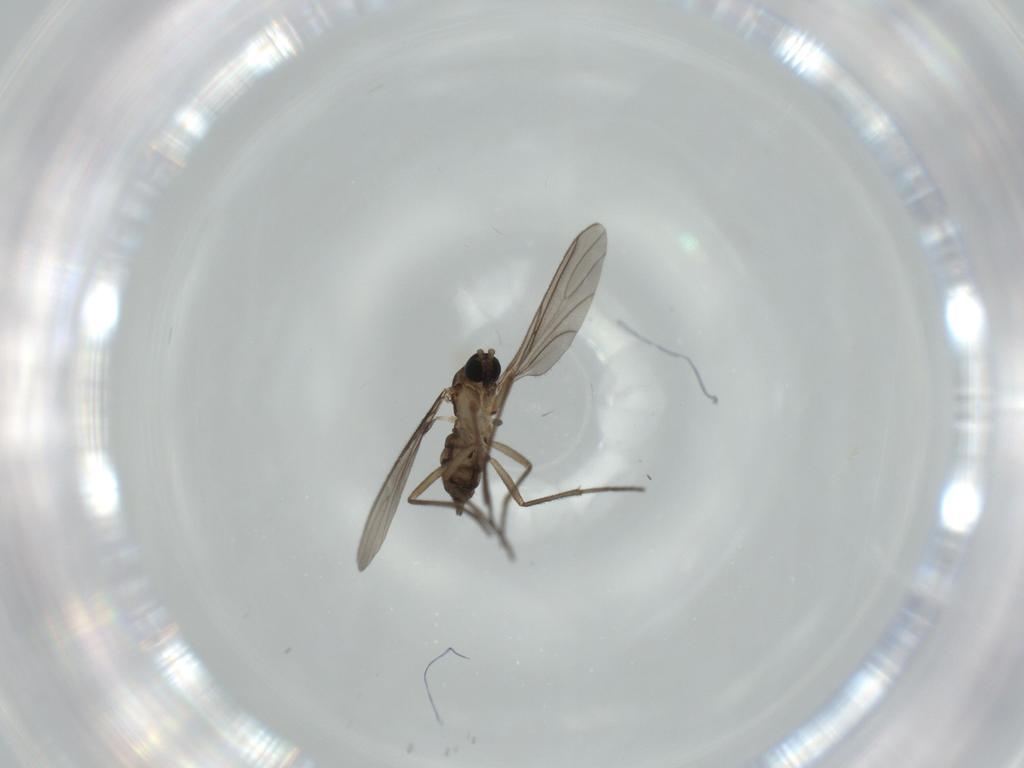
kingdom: Animalia
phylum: Arthropoda
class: Insecta
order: Diptera
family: Sciaridae
